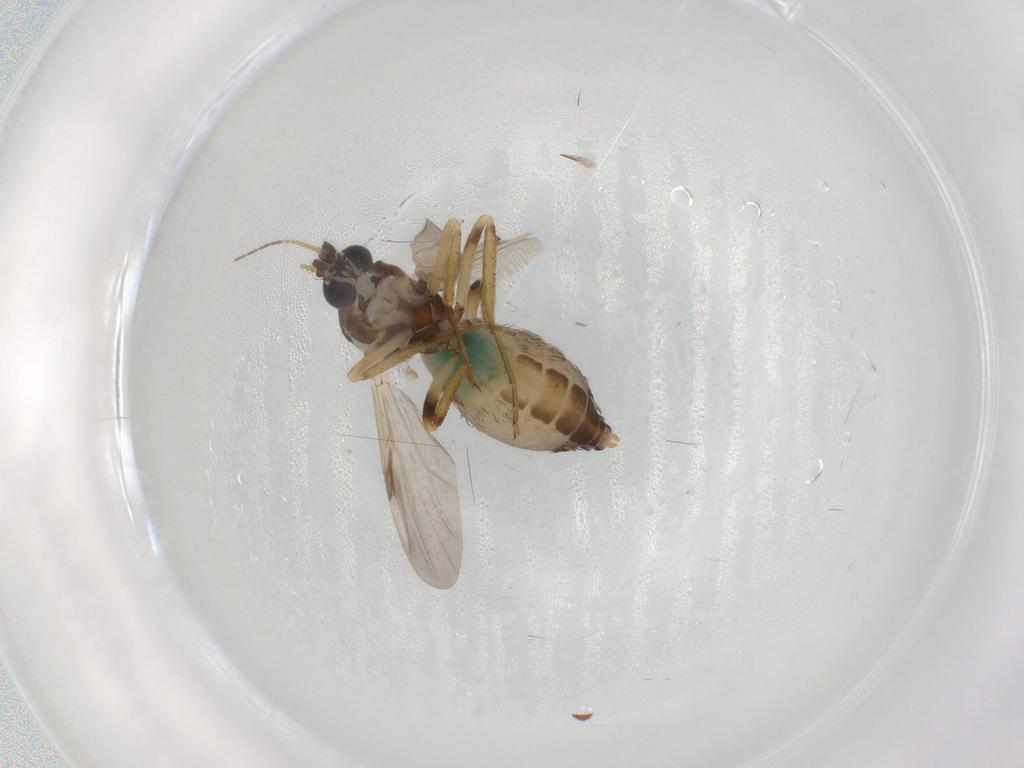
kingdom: Animalia
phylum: Arthropoda
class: Insecta
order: Diptera
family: Ceratopogonidae
